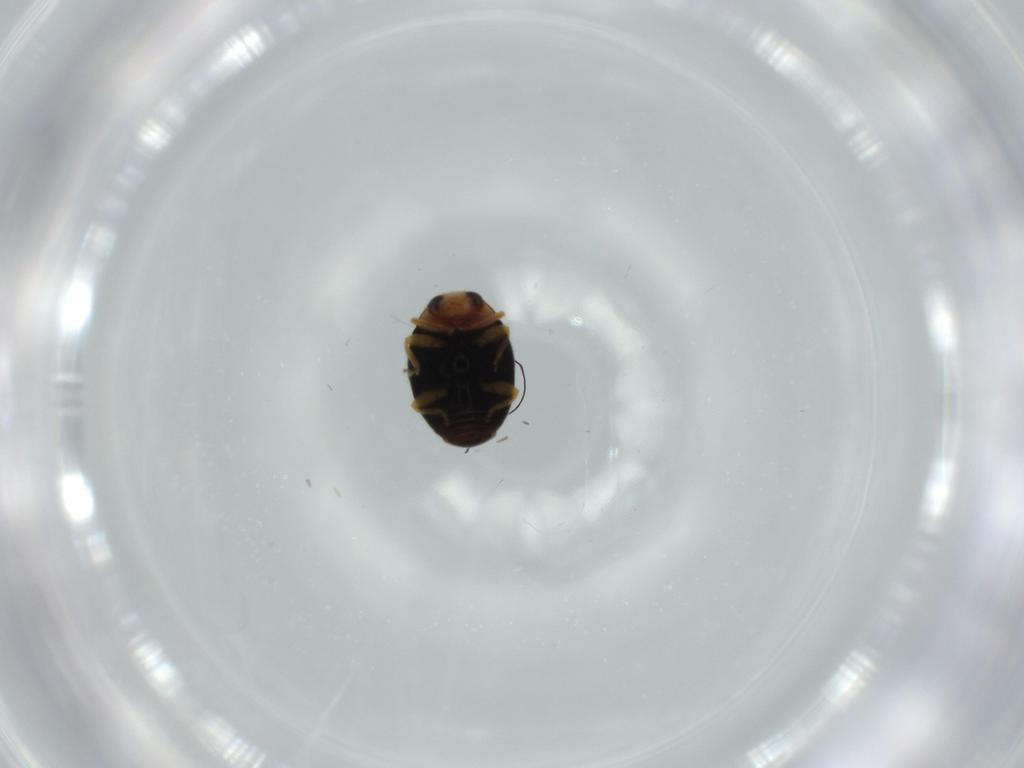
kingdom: Animalia
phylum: Arthropoda
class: Insecta
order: Coleoptera
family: Coccinellidae
